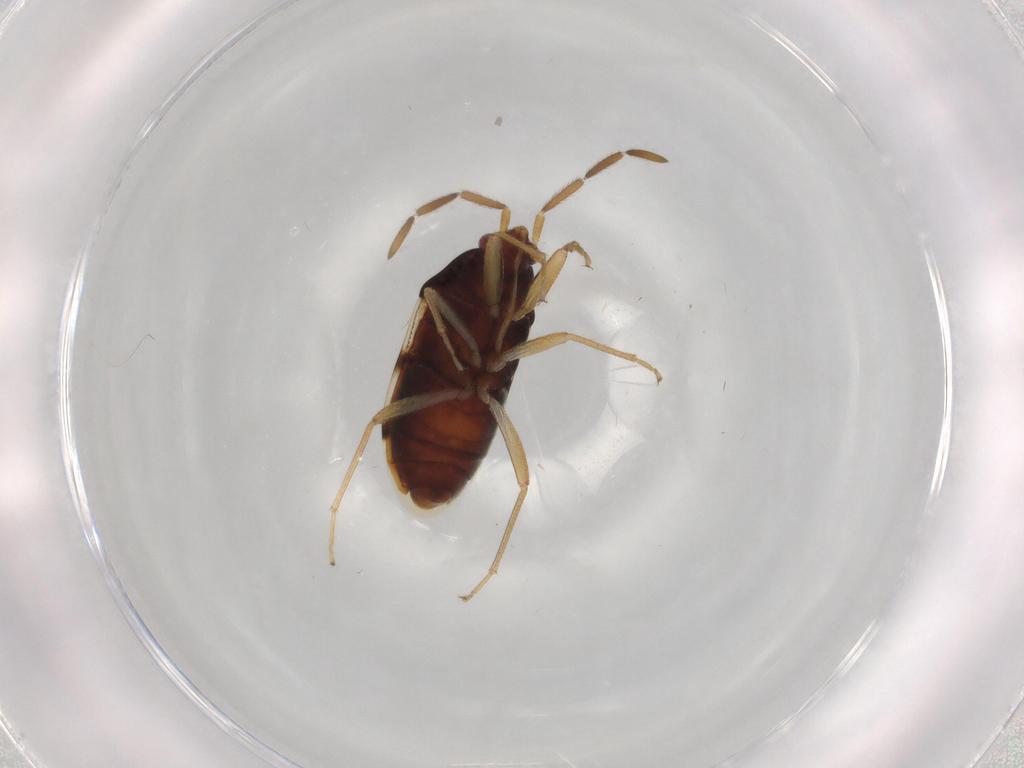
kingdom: Animalia
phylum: Arthropoda
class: Insecta
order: Hemiptera
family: Rhyparochromidae
